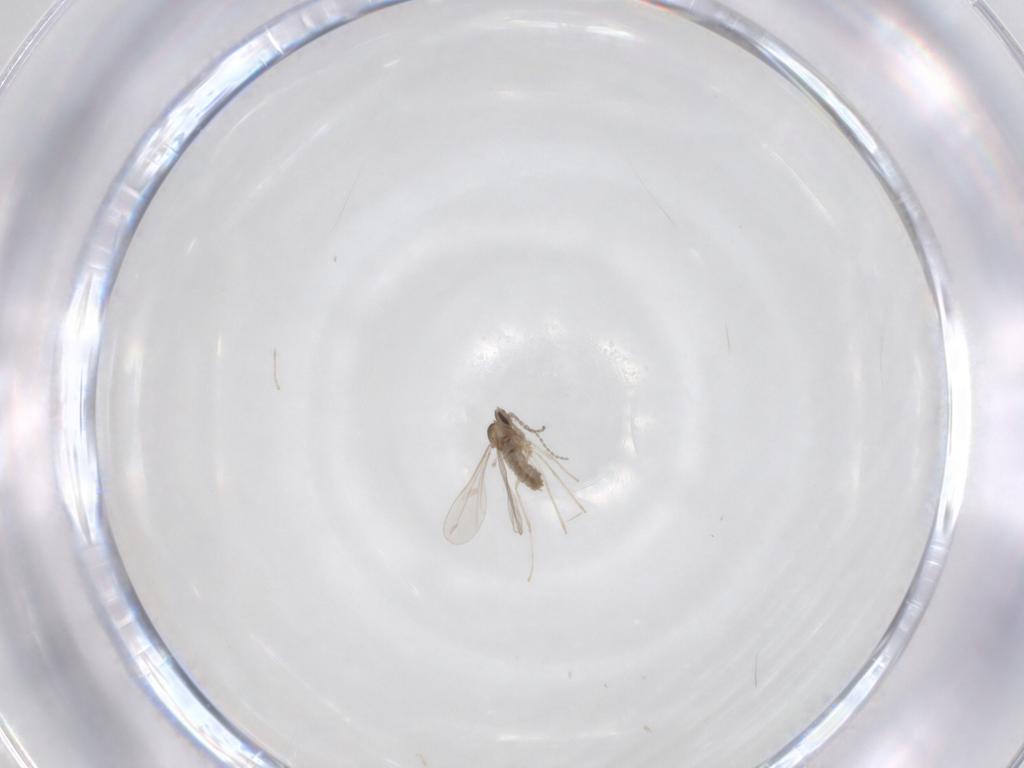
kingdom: Animalia
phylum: Arthropoda
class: Insecta
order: Diptera
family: Cecidomyiidae
